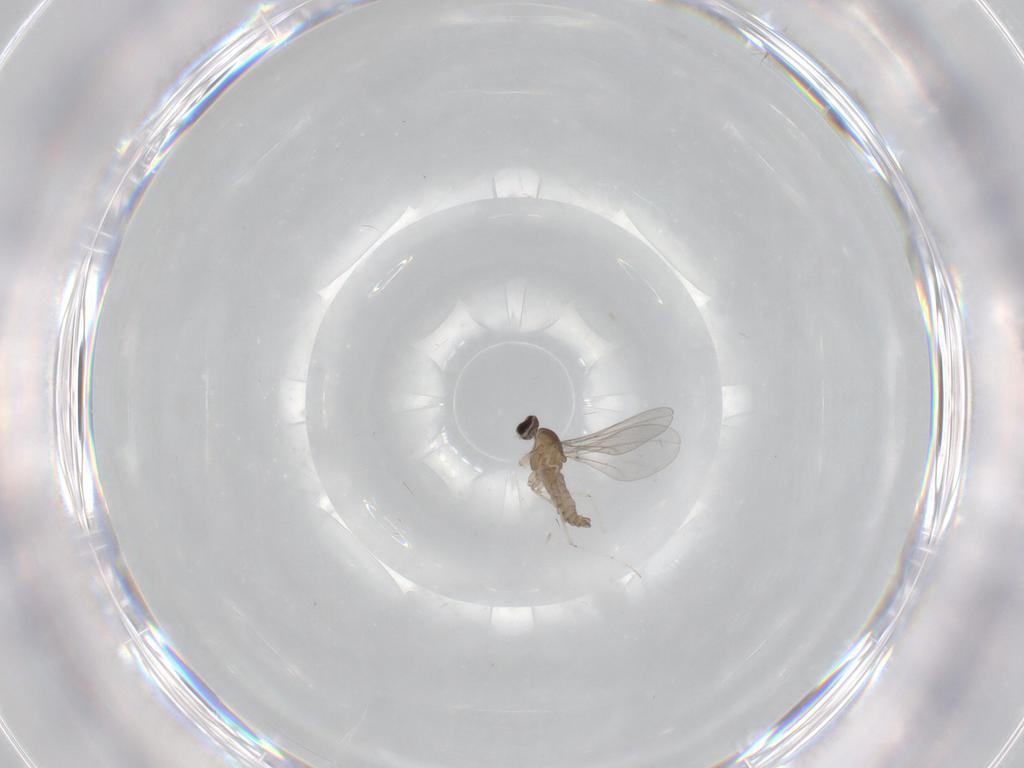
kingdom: Animalia
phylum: Arthropoda
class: Insecta
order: Diptera
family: Cecidomyiidae
